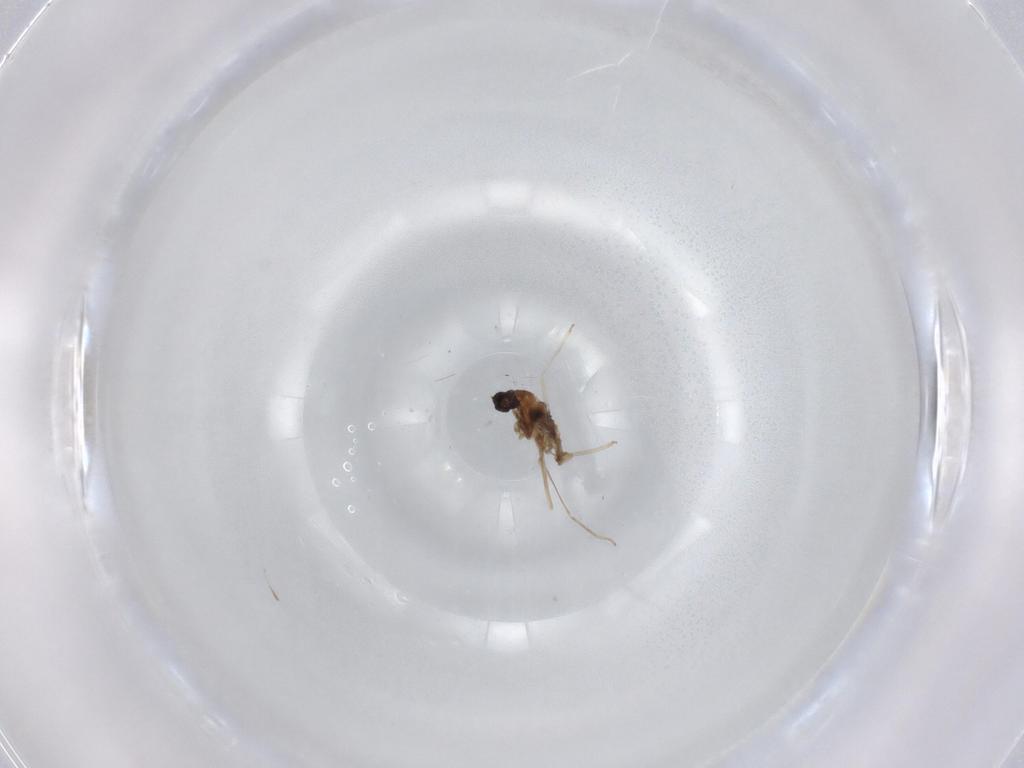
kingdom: Animalia
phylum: Arthropoda
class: Insecta
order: Diptera
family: Cecidomyiidae
